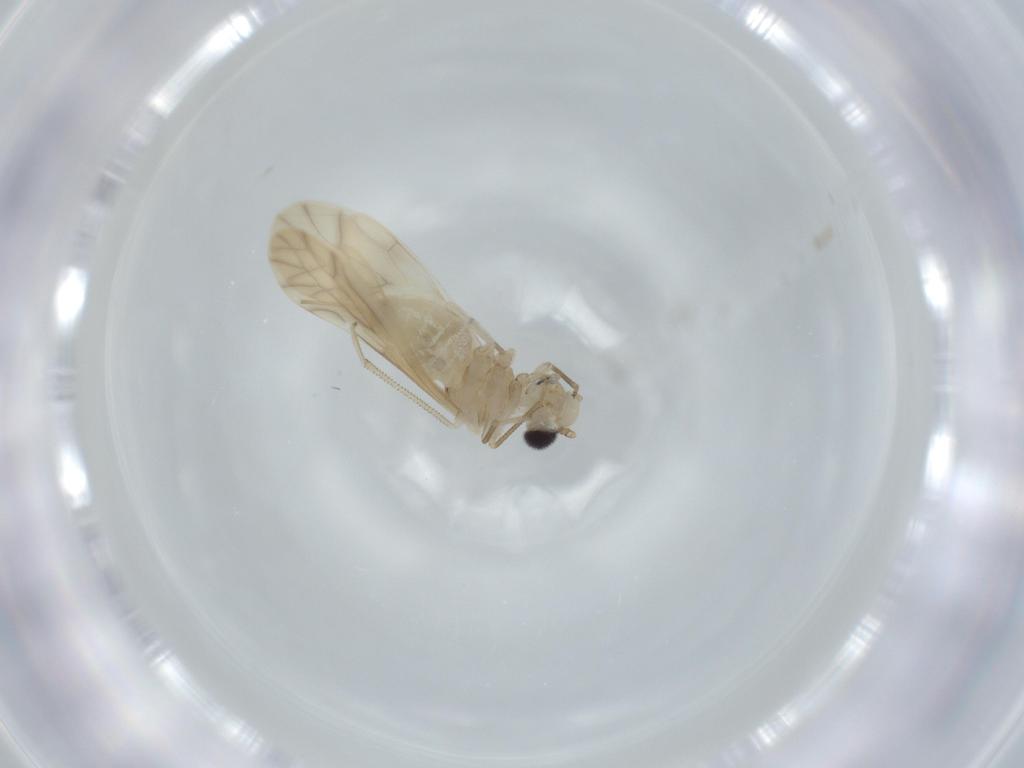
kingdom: Animalia
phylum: Arthropoda
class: Insecta
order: Psocodea
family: Caeciliusidae
